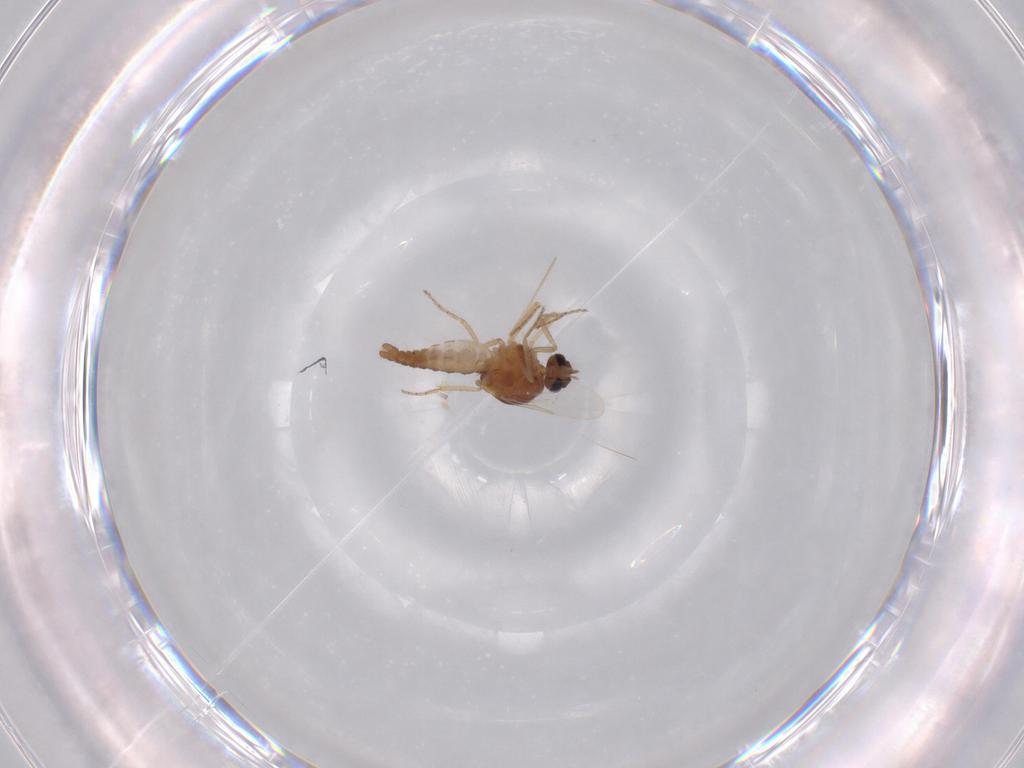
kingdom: Animalia
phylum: Arthropoda
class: Insecta
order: Diptera
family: Ceratopogonidae
